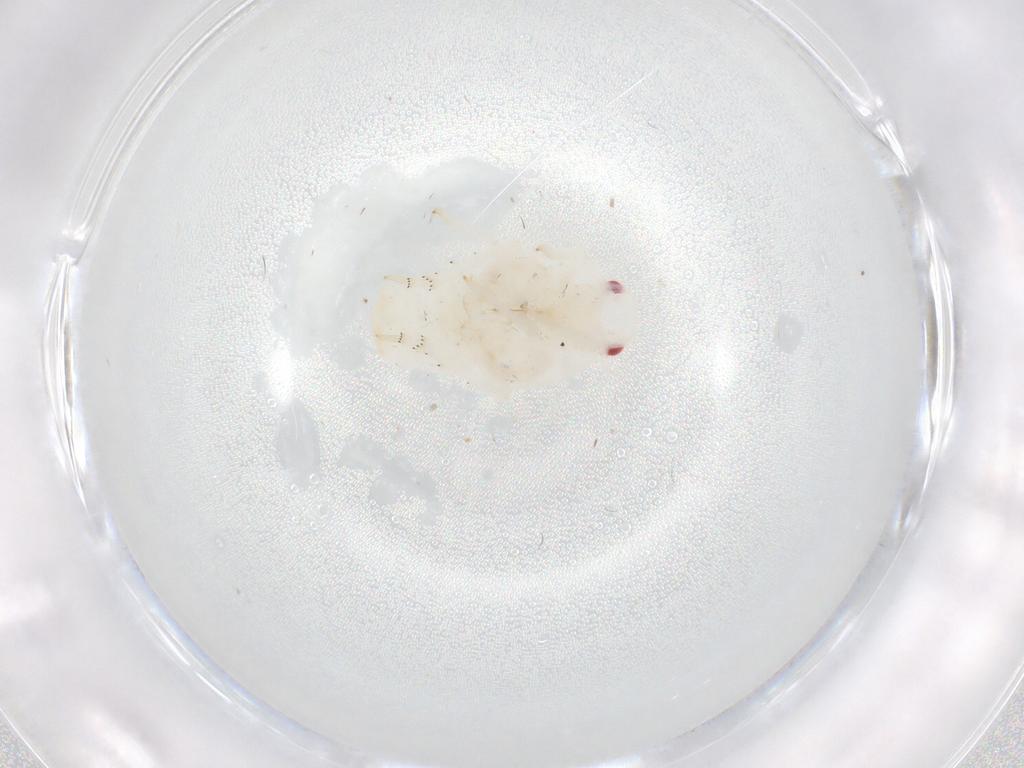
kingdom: Animalia
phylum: Arthropoda
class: Insecta
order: Hemiptera
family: Flatidae
